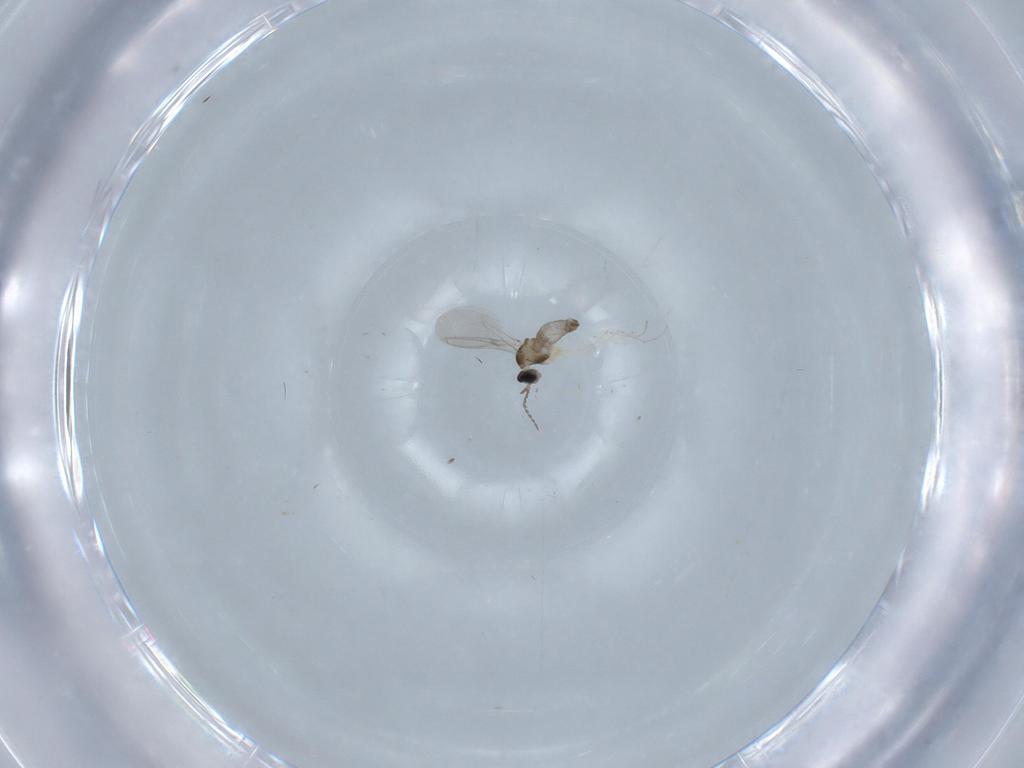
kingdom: Animalia
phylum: Arthropoda
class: Insecta
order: Diptera
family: Cecidomyiidae
